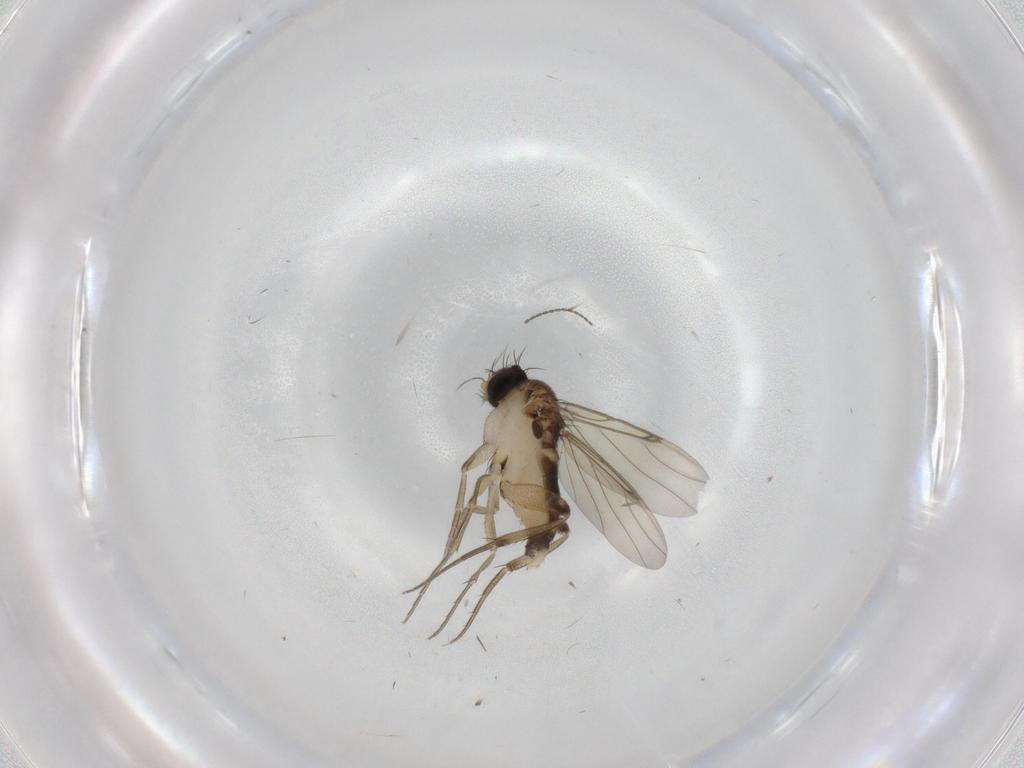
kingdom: Animalia
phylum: Arthropoda
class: Insecta
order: Diptera
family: Phoridae
